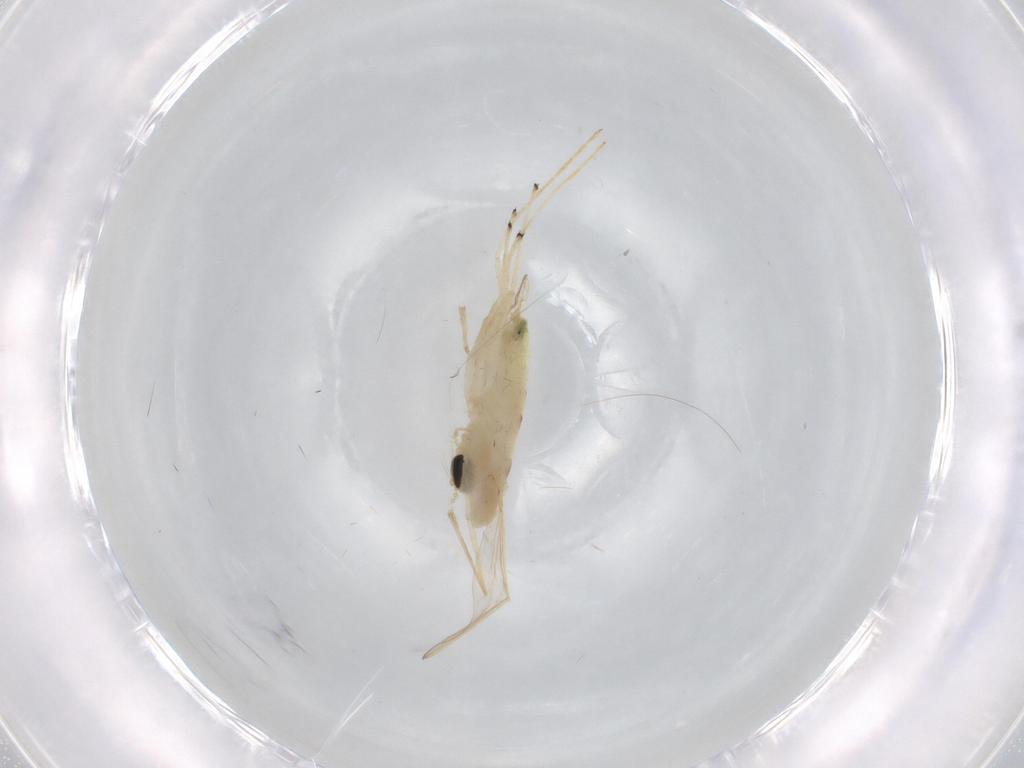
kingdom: Animalia
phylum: Arthropoda
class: Insecta
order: Diptera
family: Chironomidae
